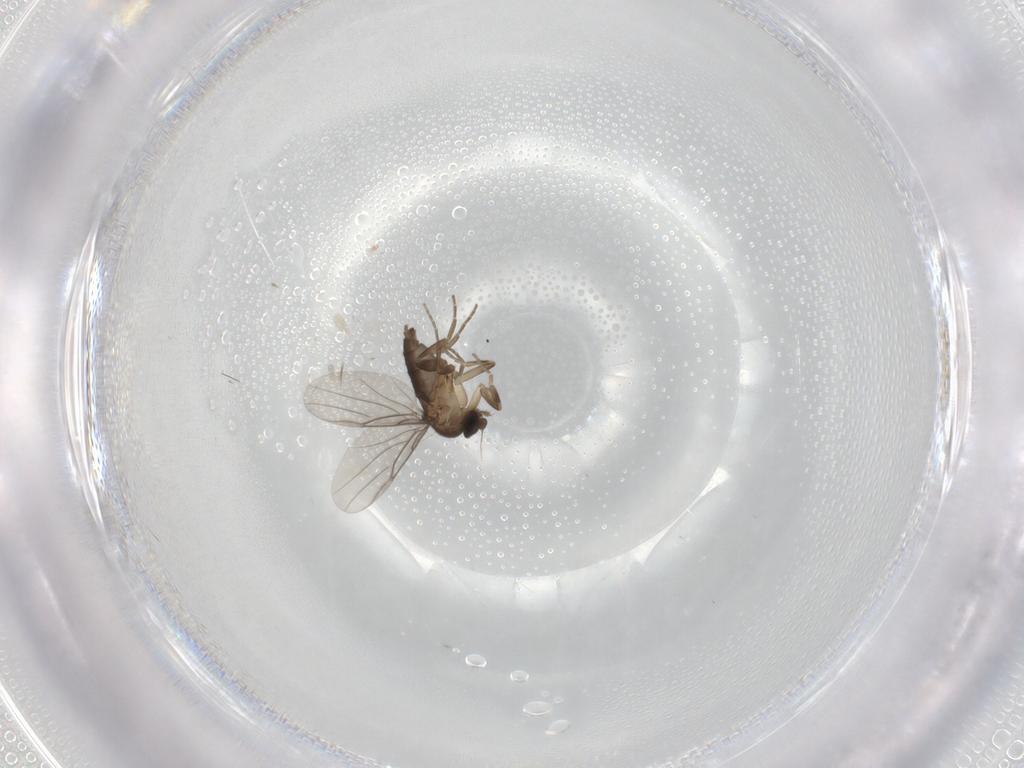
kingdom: Animalia
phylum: Arthropoda
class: Insecta
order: Diptera
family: Phoridae
